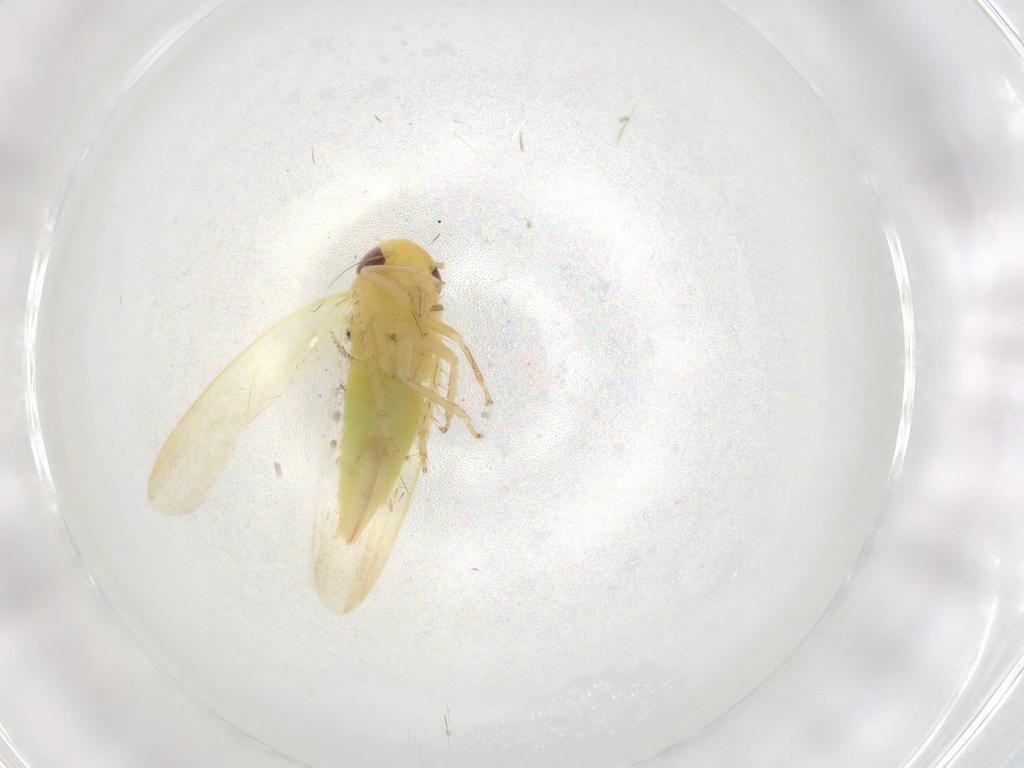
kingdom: Animalia
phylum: Arthropoda
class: Insecta
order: Hemiptera
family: Cicadellidae
